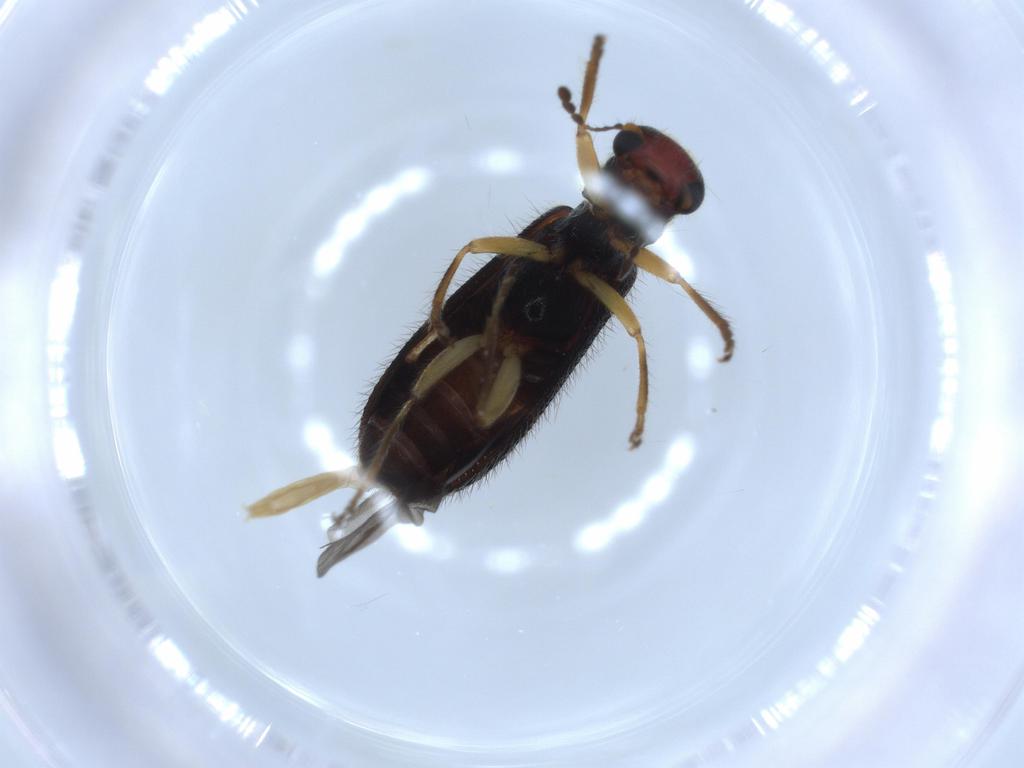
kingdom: Animalia
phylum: Arthropoda
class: Insecta
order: Coleoptera
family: Cleridae
